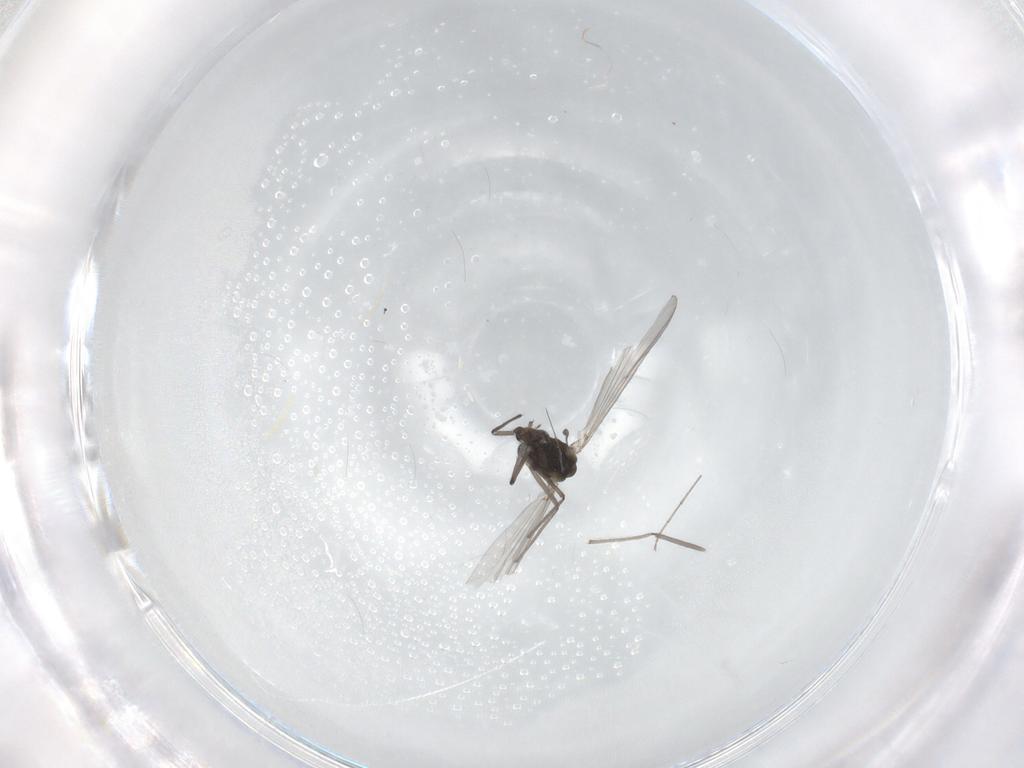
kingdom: Animalia
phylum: Arthropoda
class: Insecta
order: Diptera
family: Chironomidae
